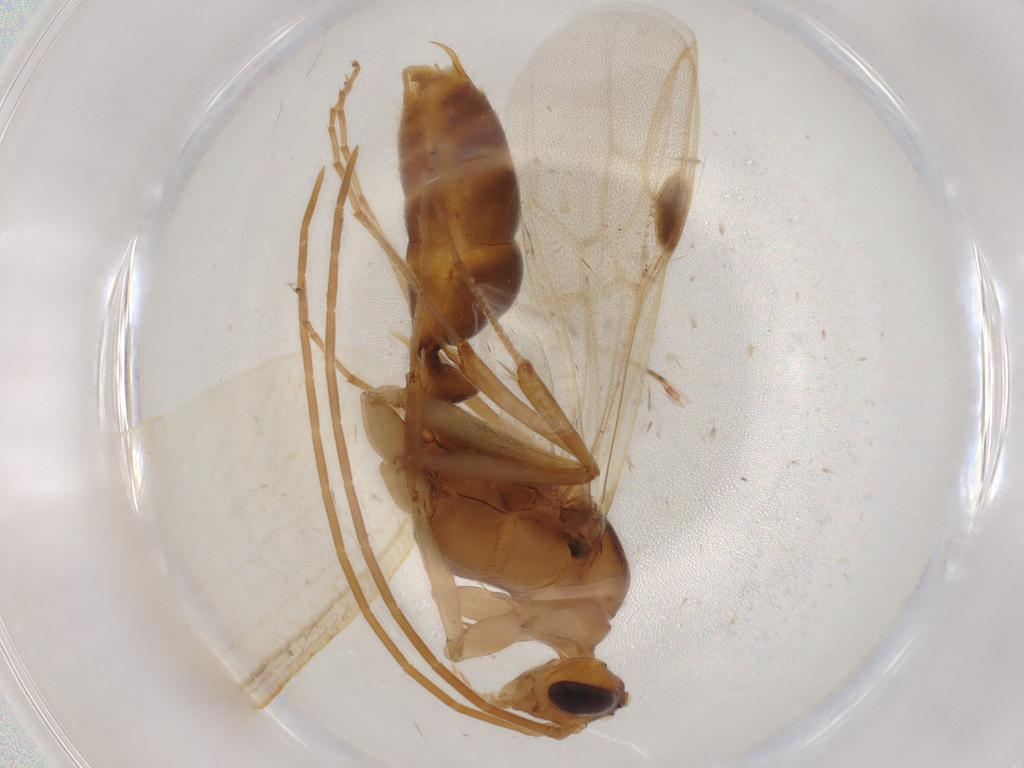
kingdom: Animalia
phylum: Arthropoda
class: Insecta
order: Hymenoptera
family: Formicidae
